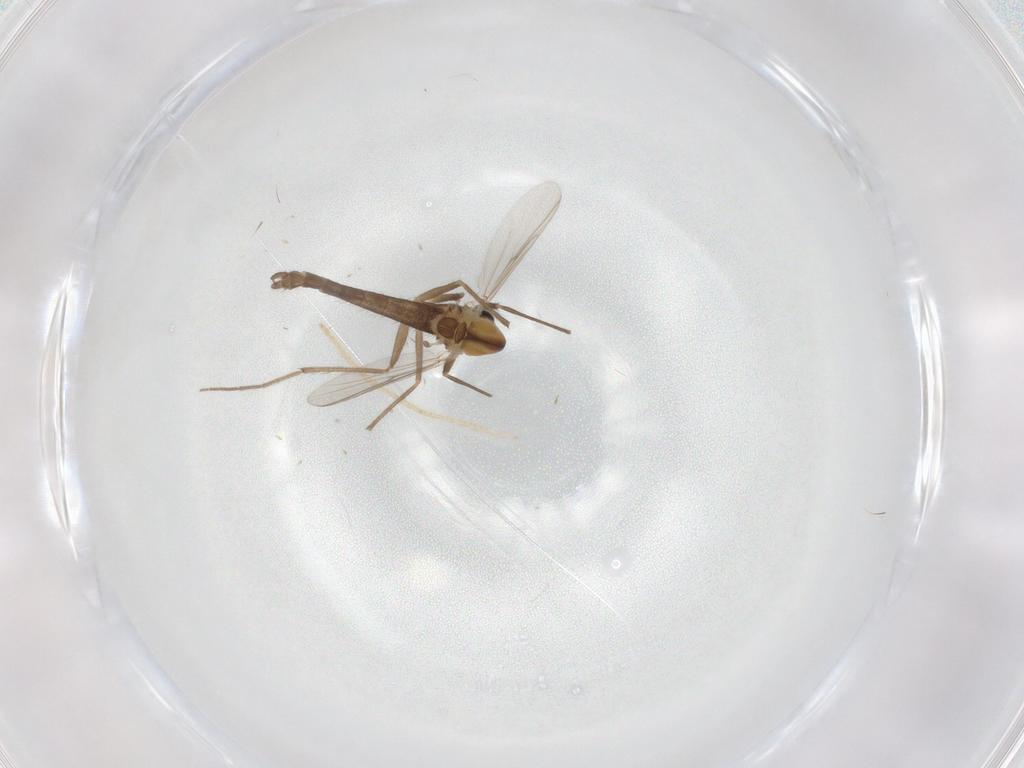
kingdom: Animalia
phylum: Arthropoda
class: Insecta
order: Diptera
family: Chironomidae
